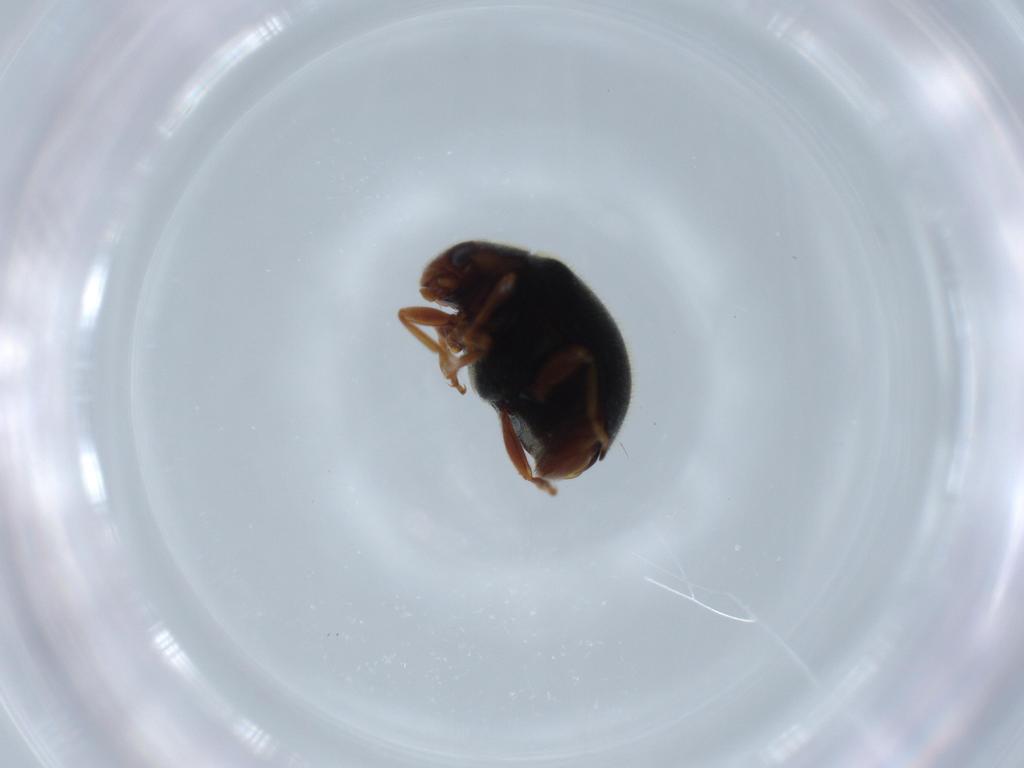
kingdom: Animalia
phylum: Arthropoda
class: Insecta
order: Coleoptera
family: Coccinellidae
